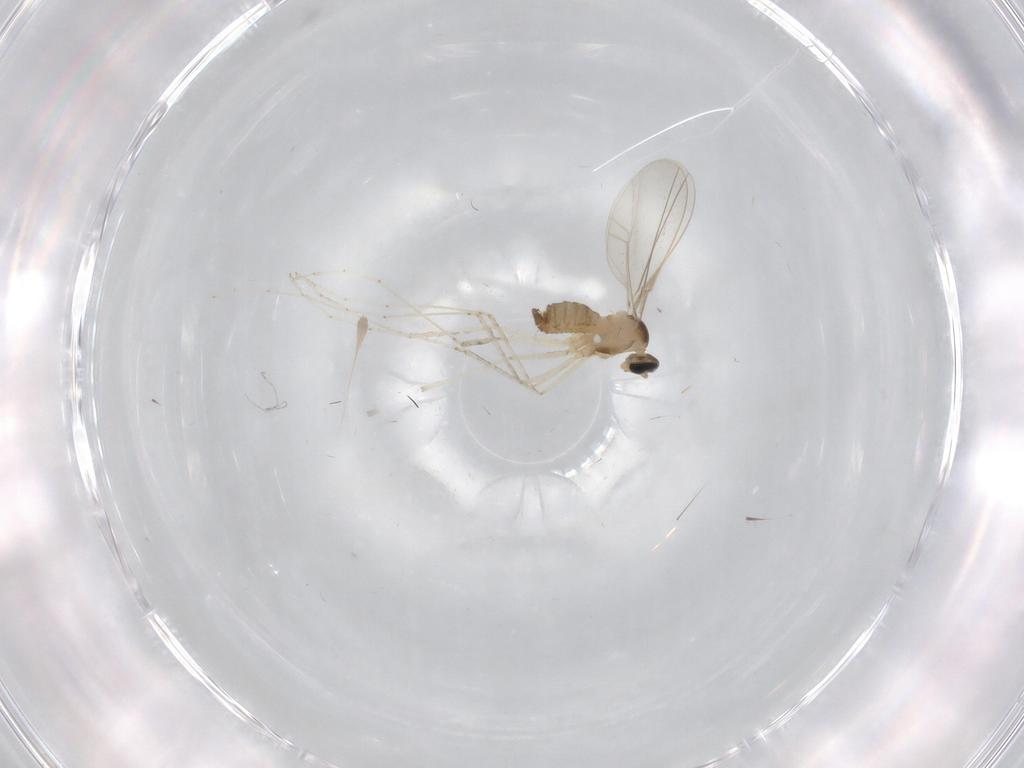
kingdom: Animalia
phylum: Arthropoda
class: Insecta
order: Diptera
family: Cecidomyiidae
